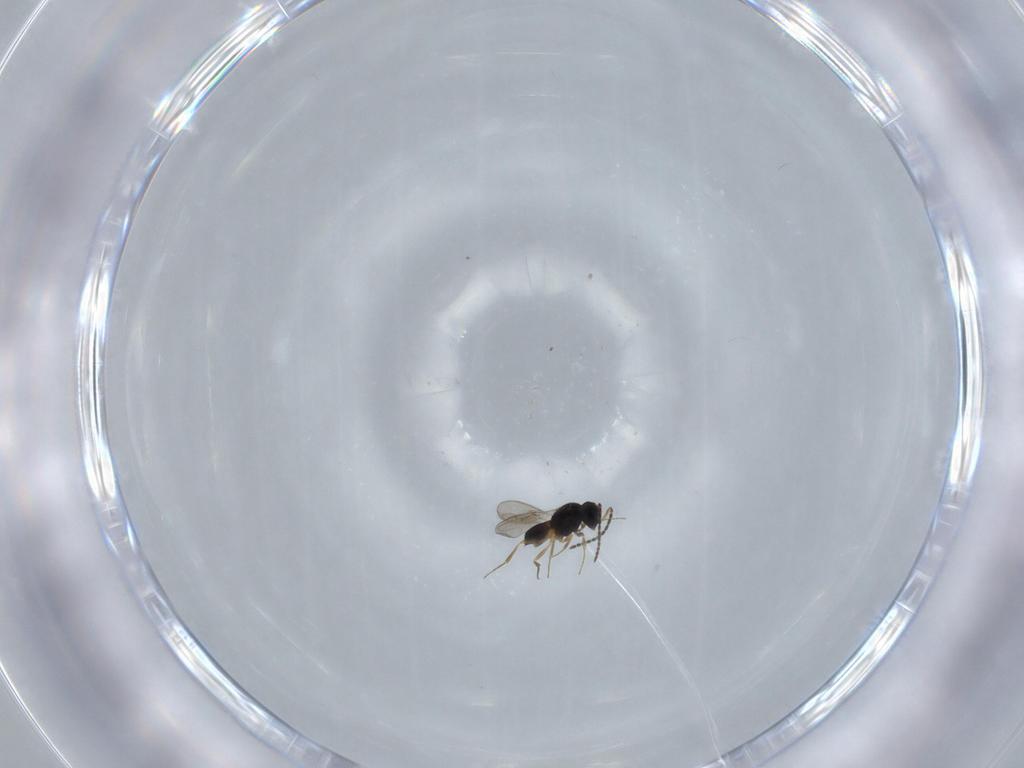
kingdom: Animalia
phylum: Arthropoda
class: Insecta
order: Hymenoptera
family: Scelionidae
